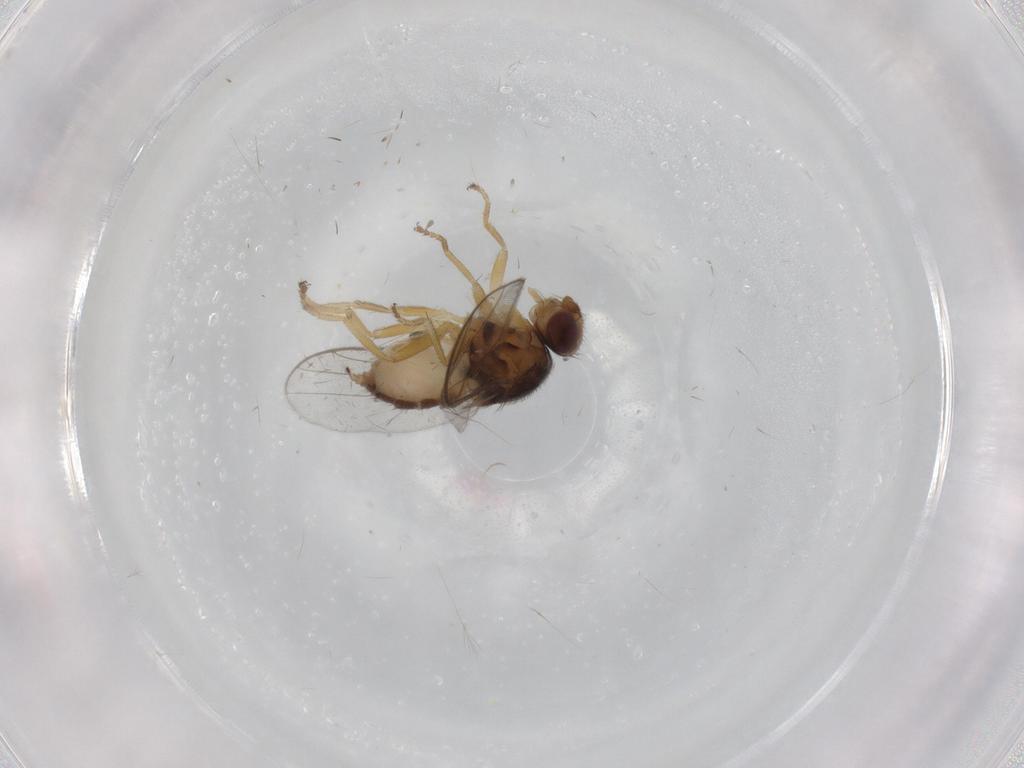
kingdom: Animalia
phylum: Arthropoda
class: Insecta
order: Diptera
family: Chloropidae
